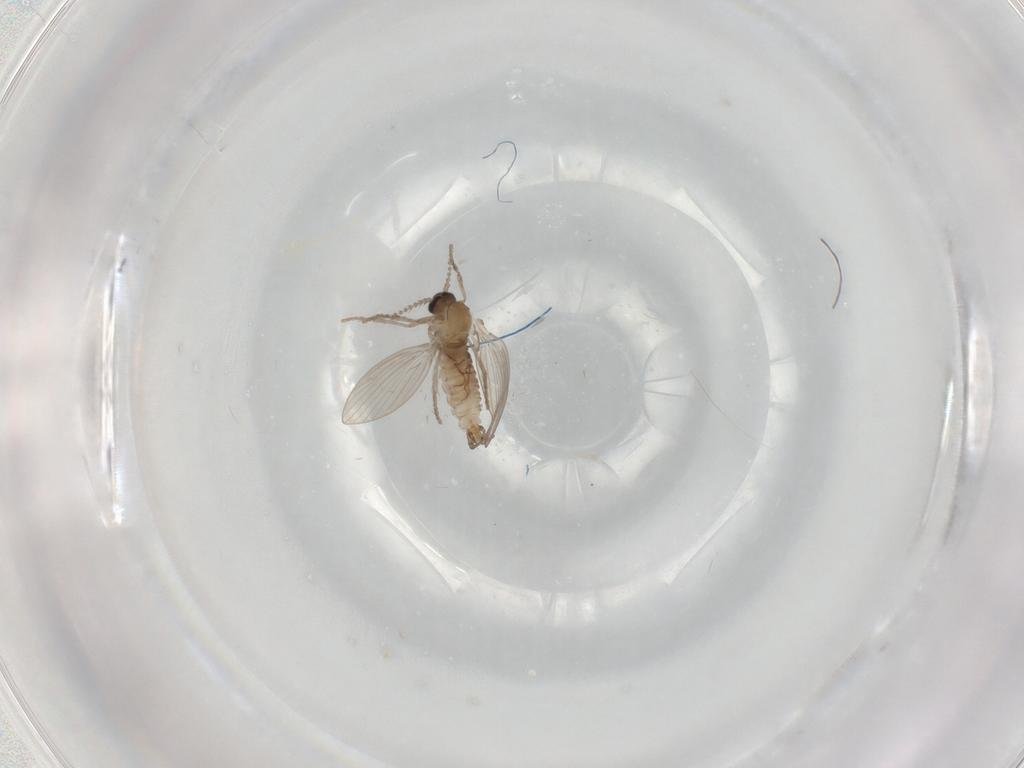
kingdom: Animalia
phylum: Arthropoda
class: Insecta
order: Diptera
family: Psychodidae
